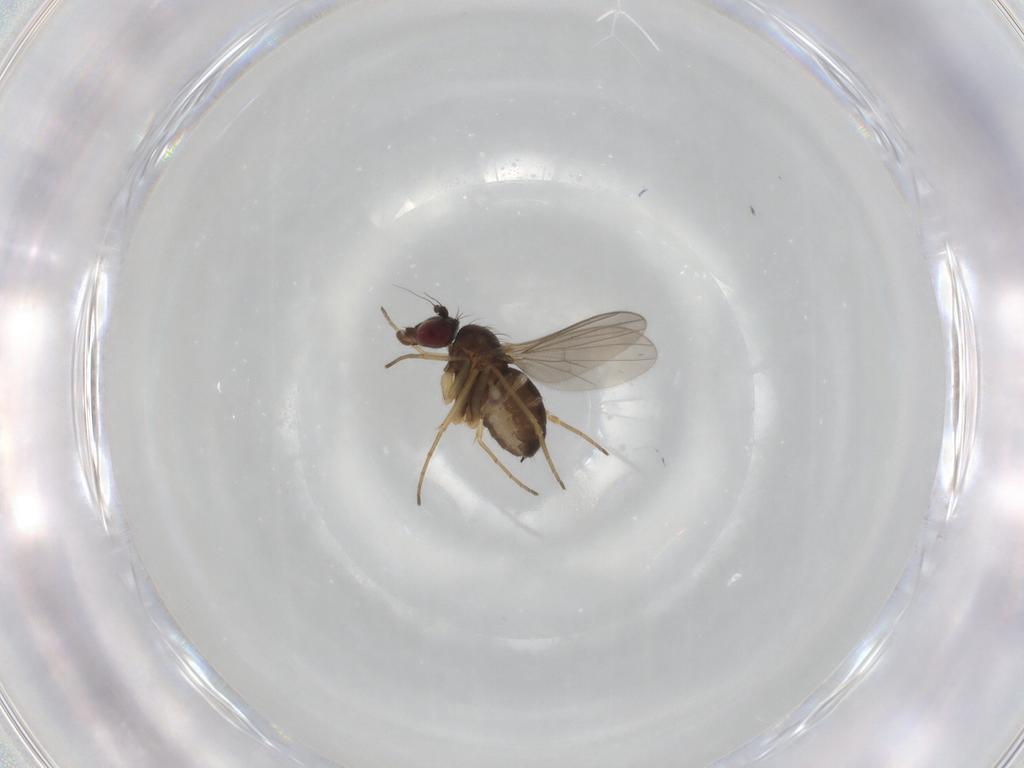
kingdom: Animalia
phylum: Arthropoda
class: Insecta
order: Diptera
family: Dolichopodidae
